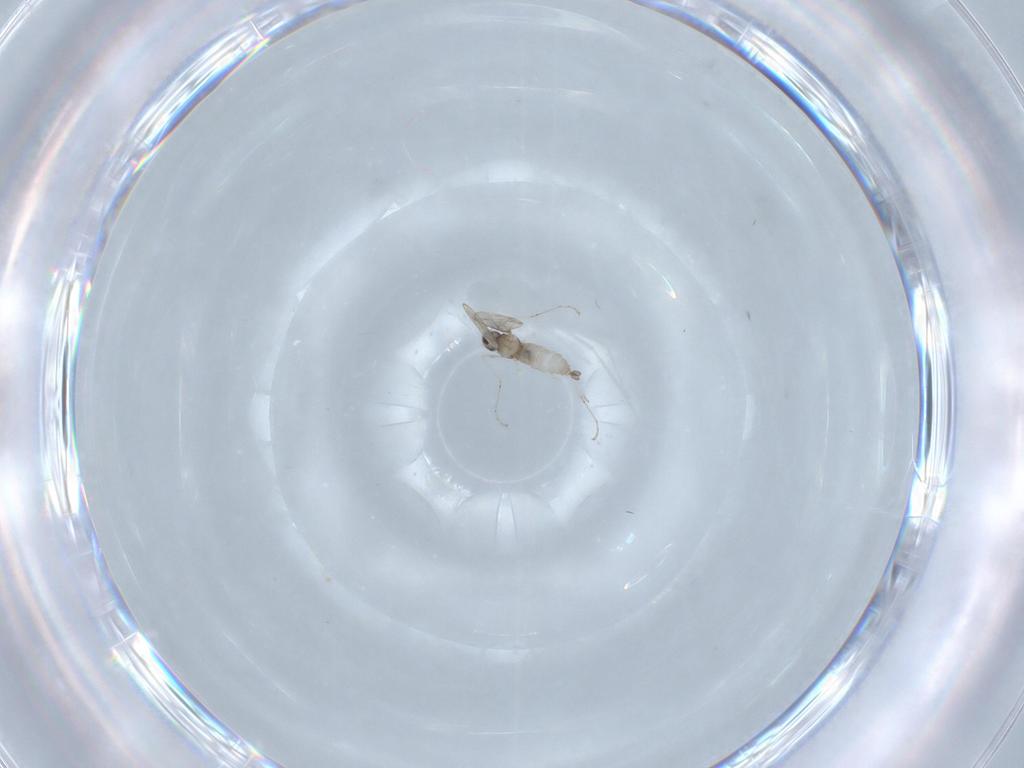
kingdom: Animalia
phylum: Arthropoda
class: Insecta
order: Diptera
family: Cecidomyiidae
